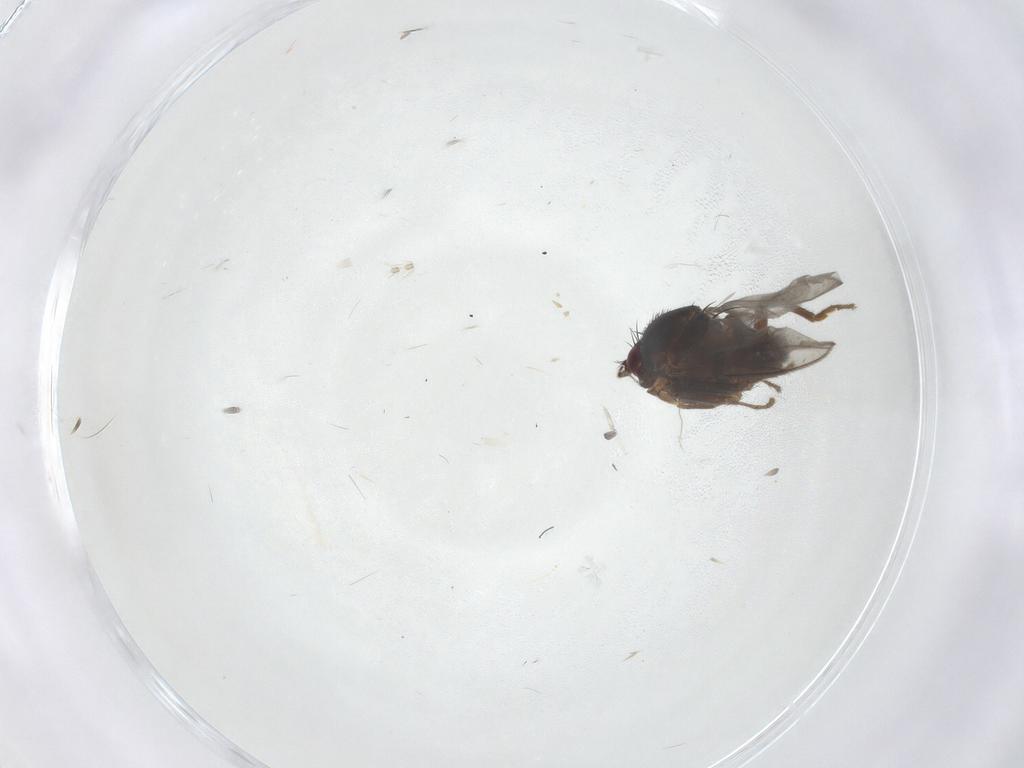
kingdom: Animalia
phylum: Arthropoda
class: Insecta
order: Diptera
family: Sphaeroceridae
